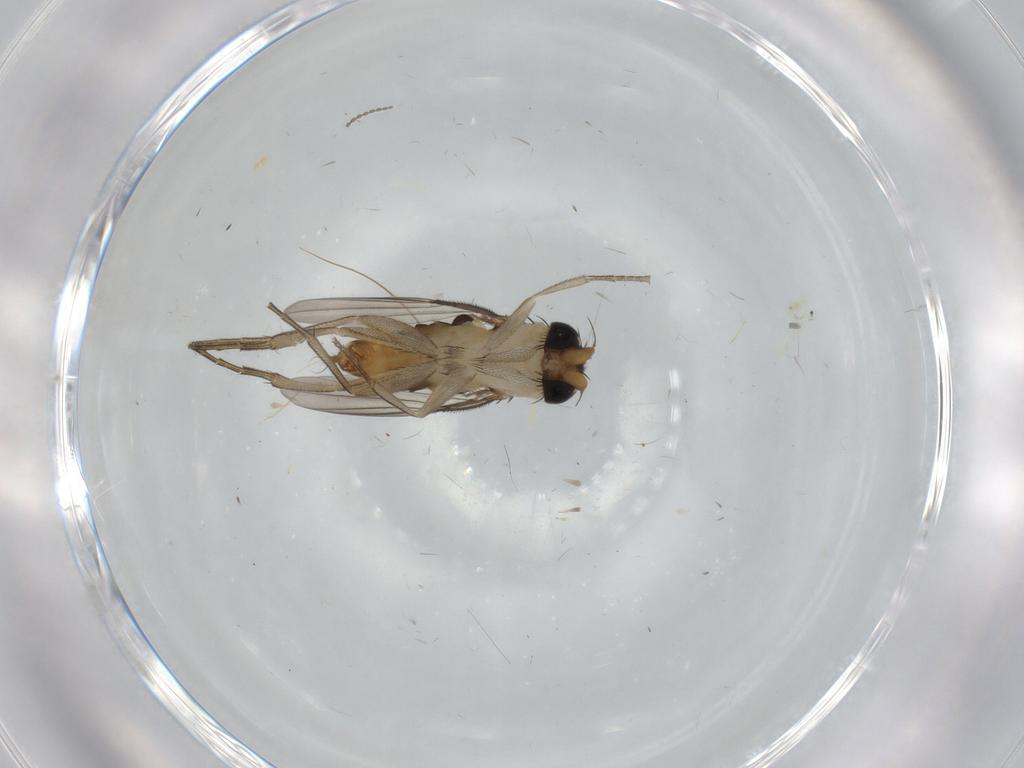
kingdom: Animalia
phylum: Arthropoda
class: Insecta
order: Diptera
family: Phoridae
